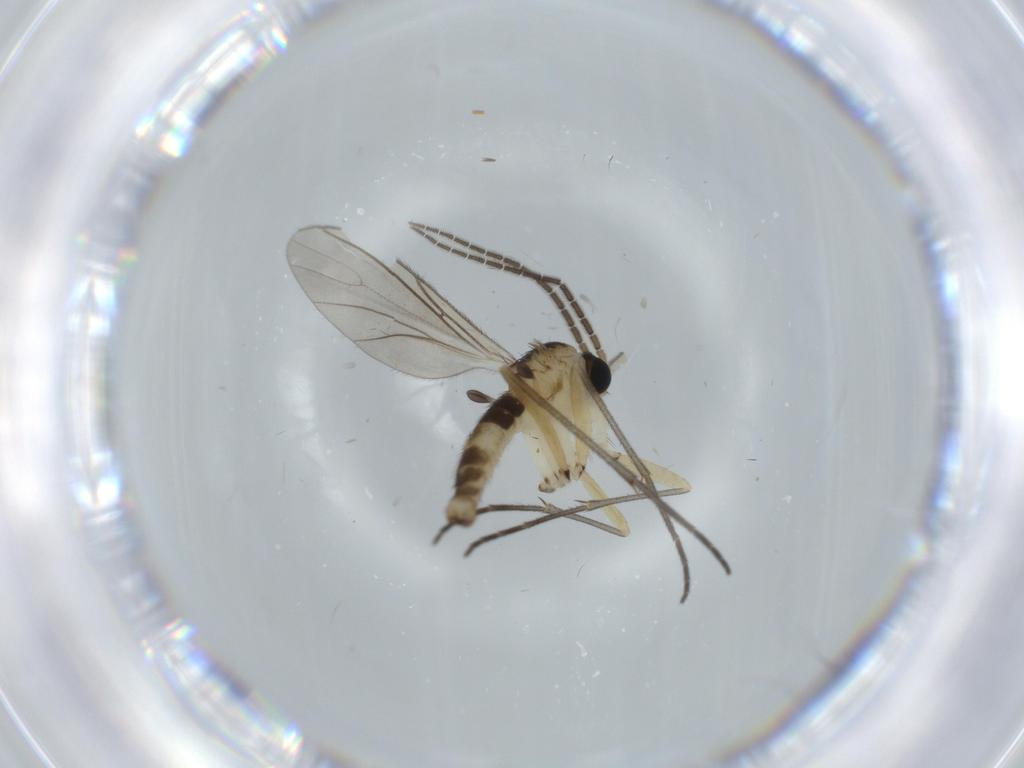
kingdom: Animalia
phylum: Arthropoda
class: Insecta
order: Diptera
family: Sciaridae
